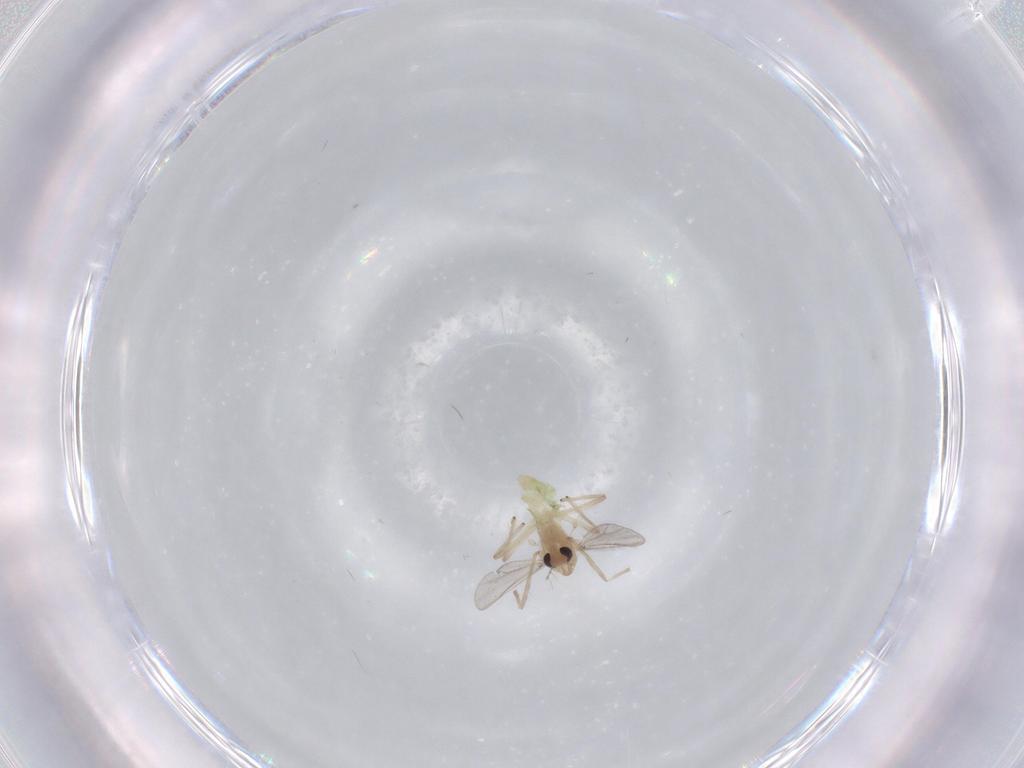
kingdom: Animalia
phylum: Arthropoda
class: Insecta
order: Diptera
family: Chironomidae
